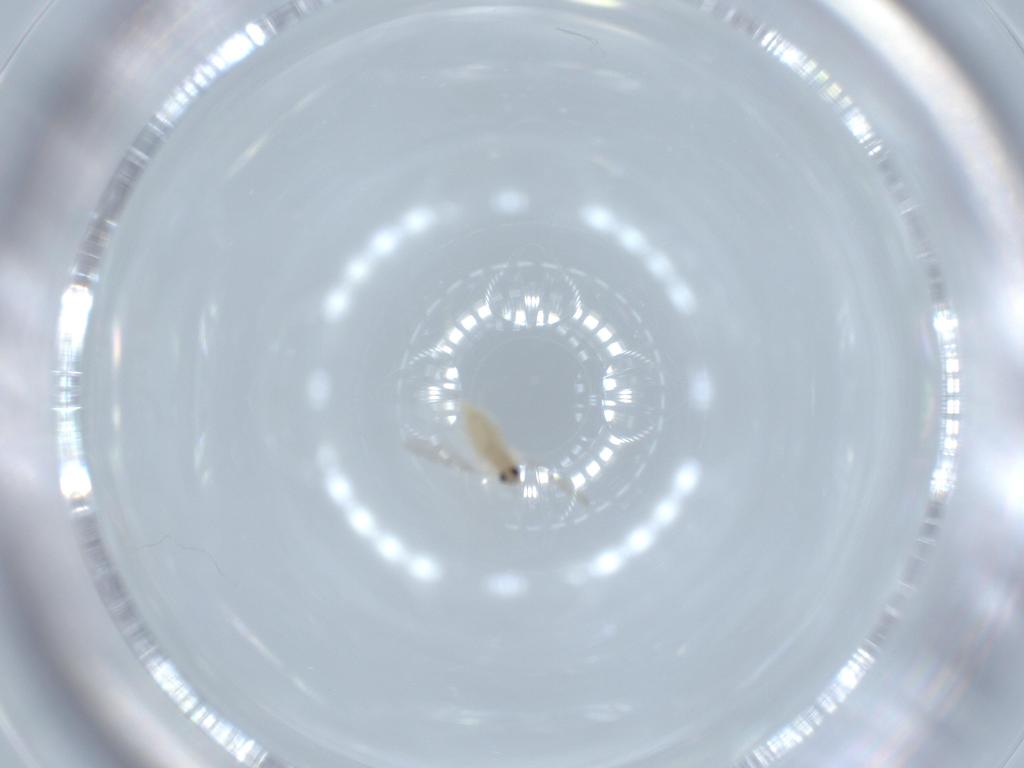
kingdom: Animalia
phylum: Arthropoda
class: Insecta
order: Diptera
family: Cecidomyiidae
